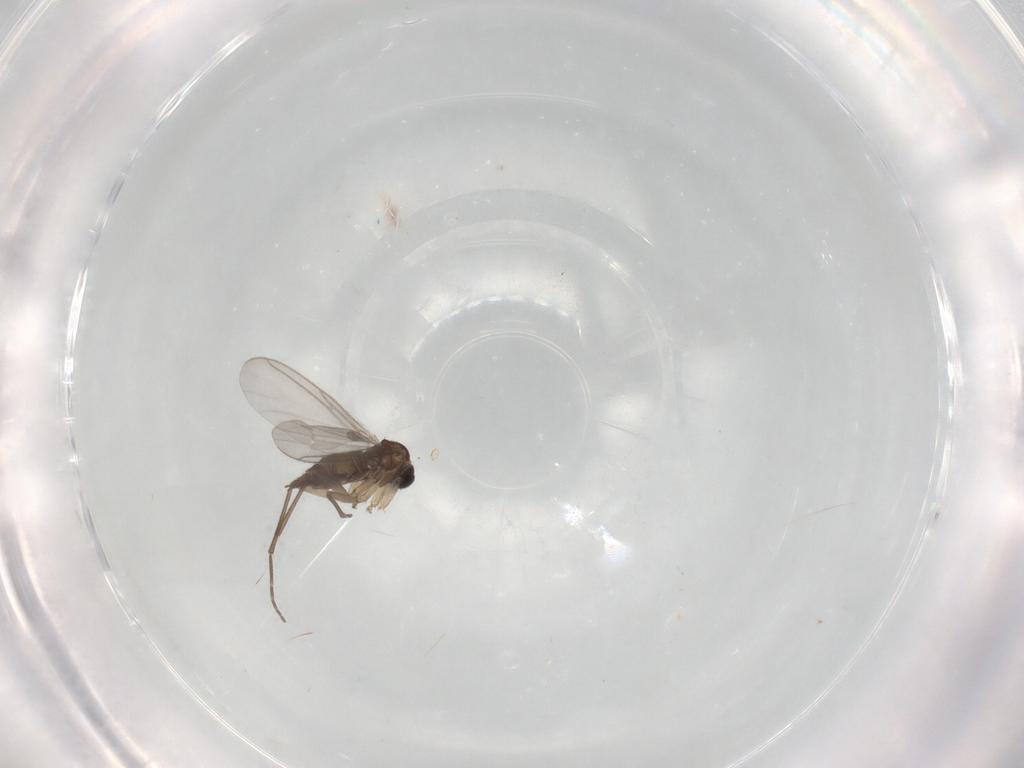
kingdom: Animalia
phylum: Arthropoda
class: Insecta
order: Diptera
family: Sciaridae
